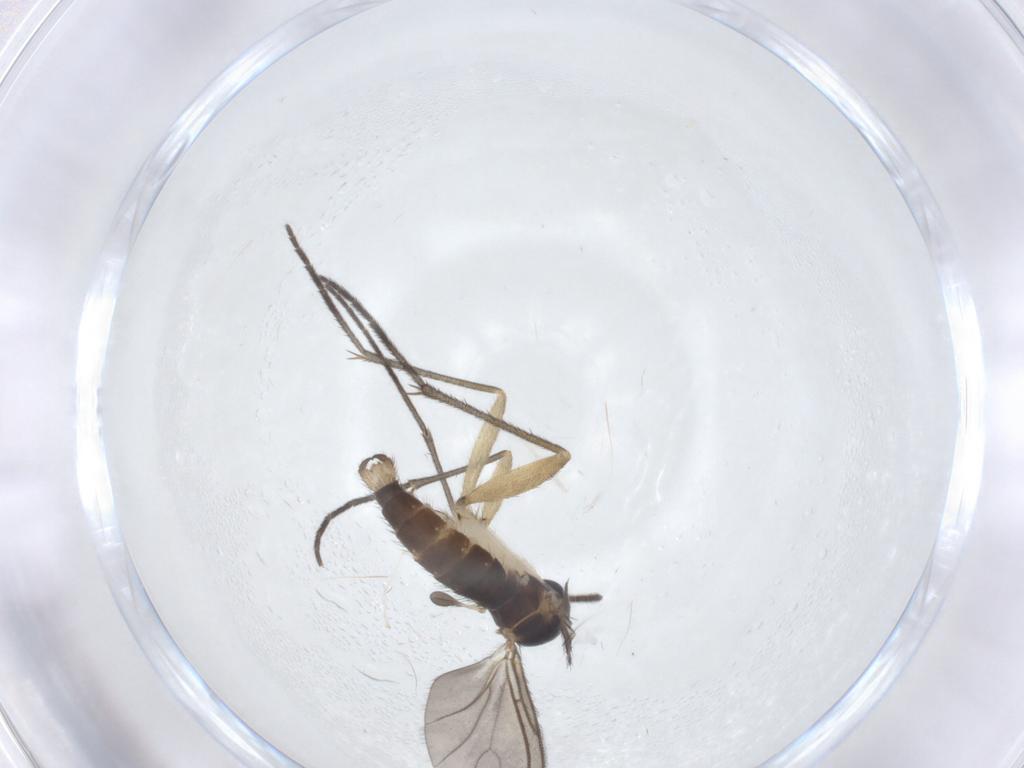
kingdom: Animalia
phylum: Arthropoda
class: Insecta
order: Diptera
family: Sciaridae
